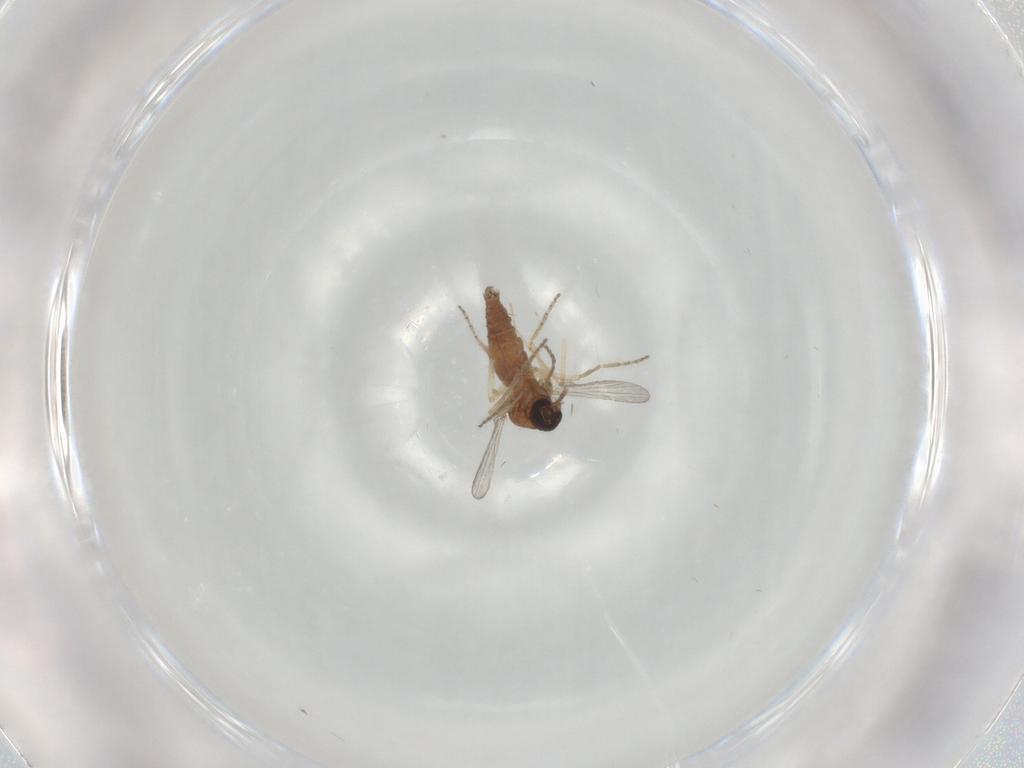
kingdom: Animalia
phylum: Arthropoda
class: Insecta
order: Diptera
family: Ceratopogonidae
